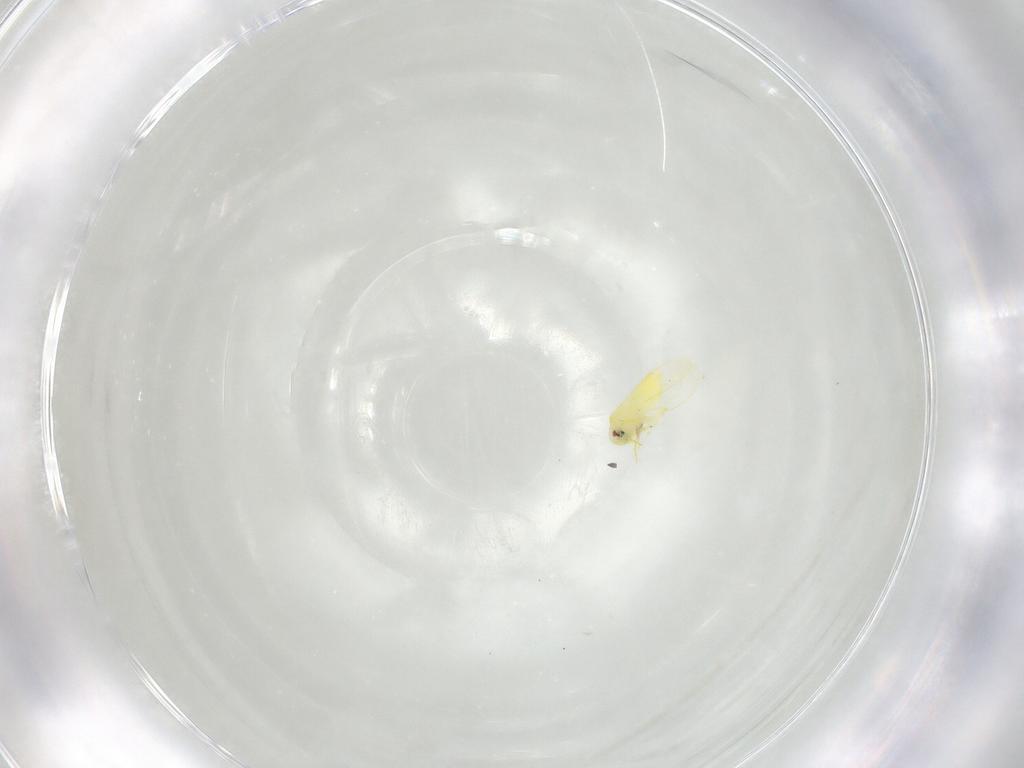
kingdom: Animalia
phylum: Arthropoda
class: Insecta
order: Hemiptera
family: Aleyrodidae
